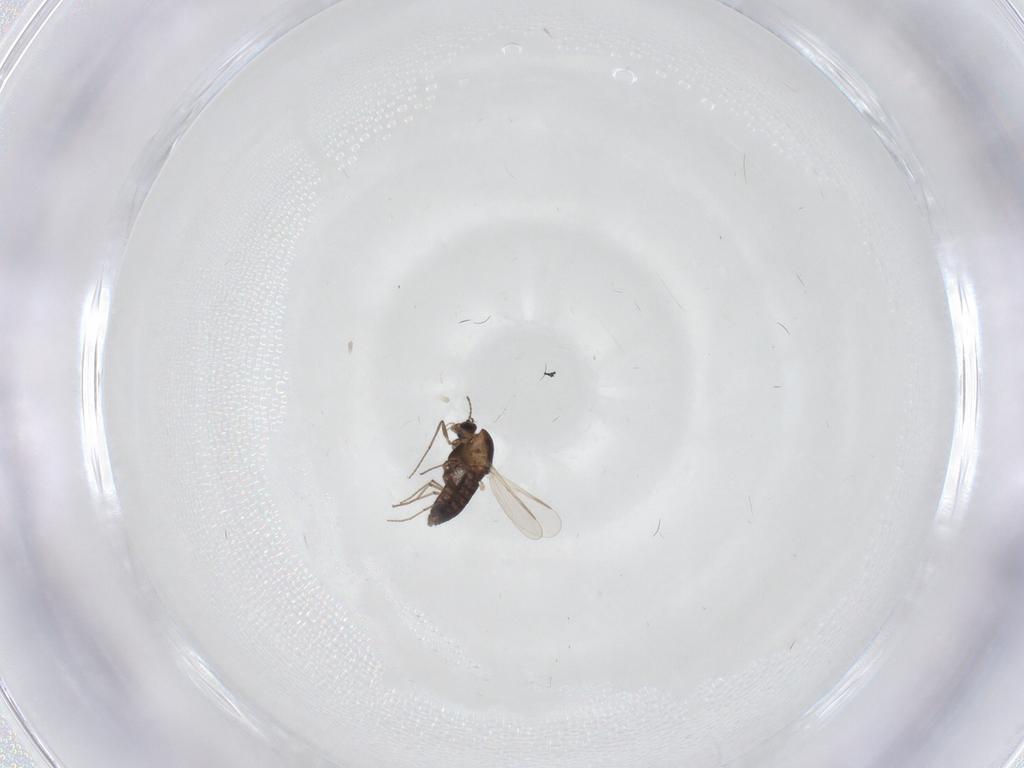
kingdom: Animalia
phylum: Arthropoda
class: Insecta
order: Diptera
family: Chironomidae
